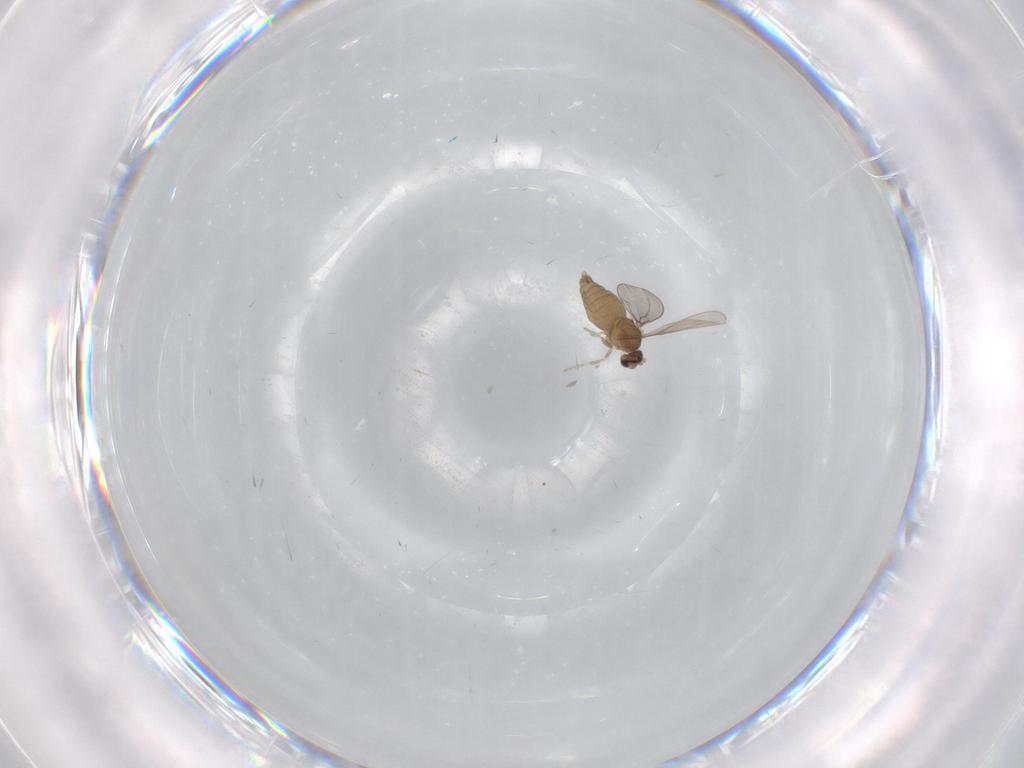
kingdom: Animalia
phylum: Arthropoda
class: Insecta
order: Diptera
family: Cecidomyiidae
